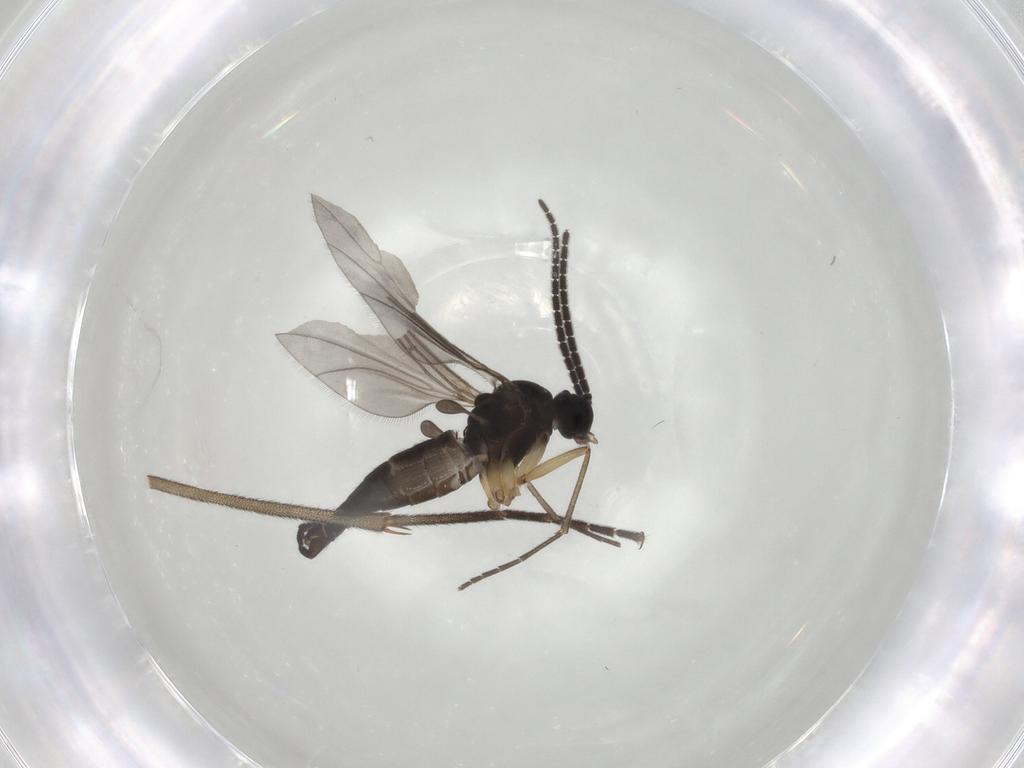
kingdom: Animalia
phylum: Arthropoda
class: Insecta
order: Diptera
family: Sciaridae
